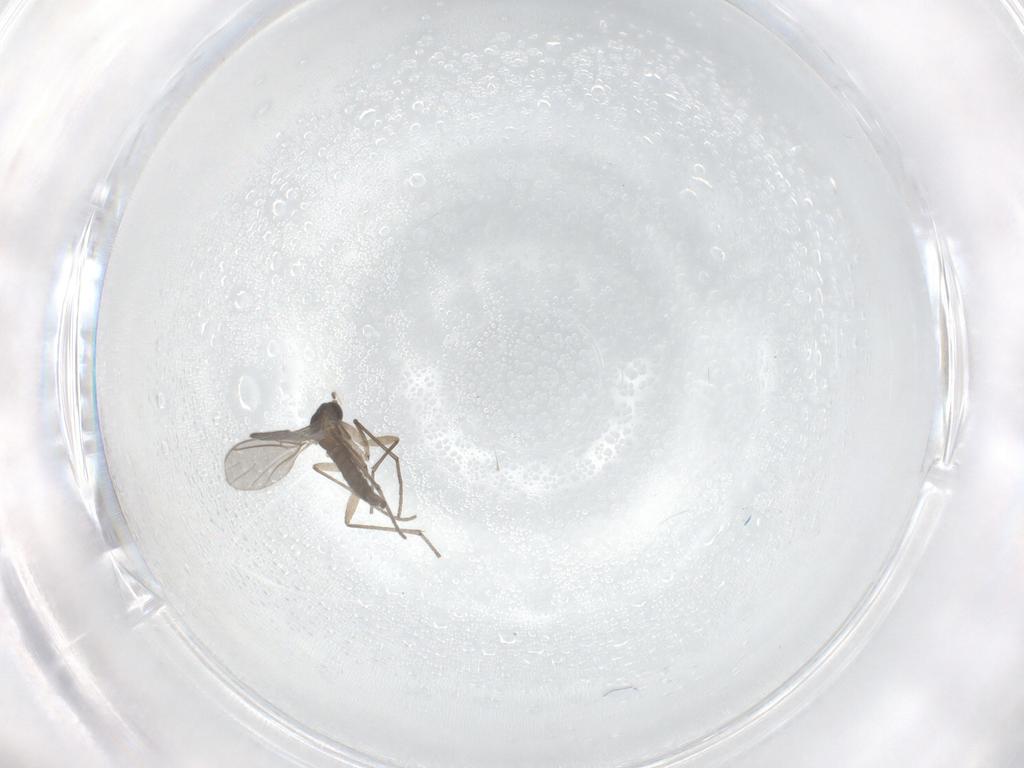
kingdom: Animalia
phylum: Arthropoda
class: Insecta
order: Diptera
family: Sciaridae
